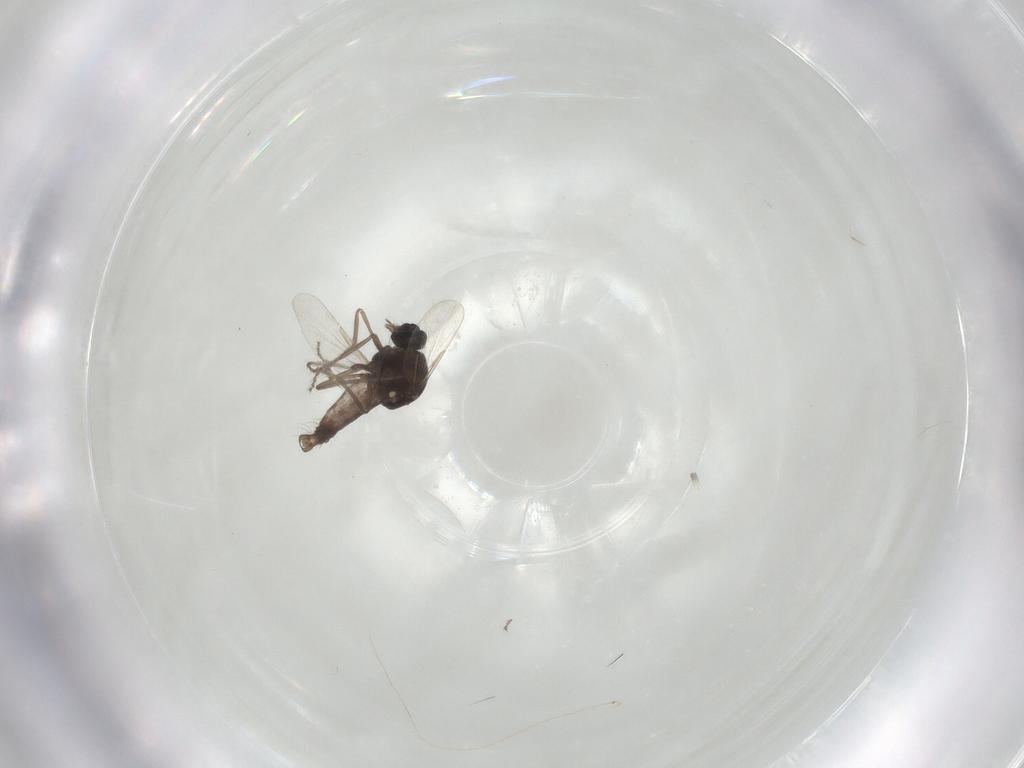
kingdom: Animalia
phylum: Arthropoda
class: Insecta
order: Diptera
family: Ceratopogonidae
